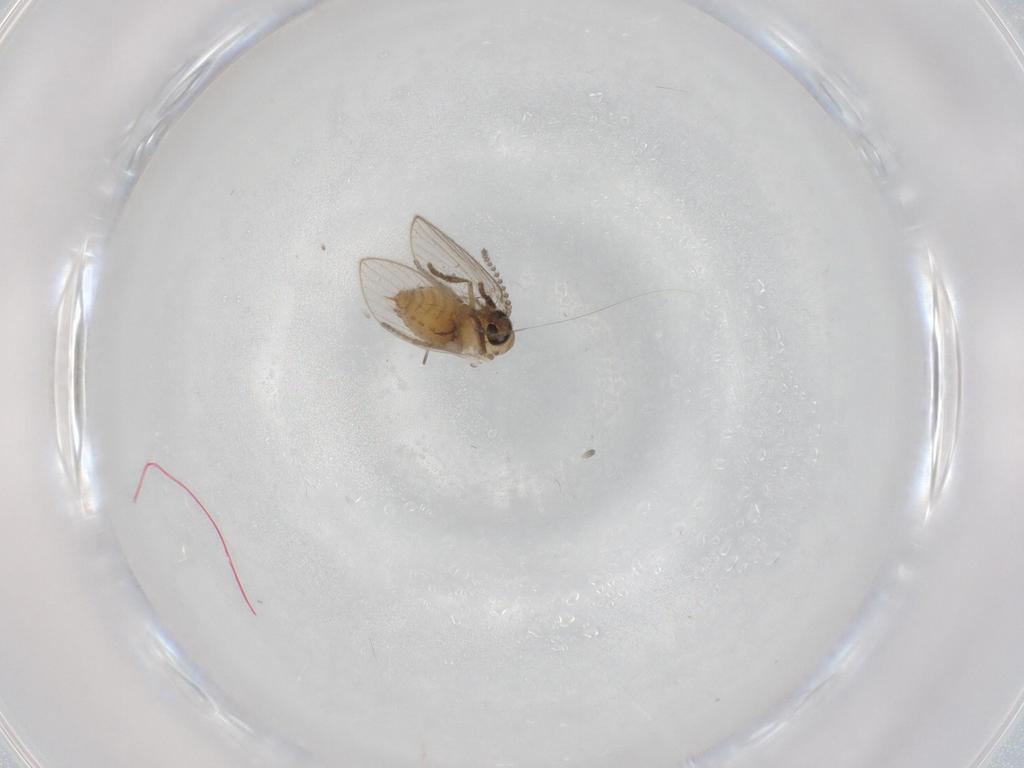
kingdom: Animalia
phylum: Arthropoda
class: Insecta
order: Diptera
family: Psychodidae
